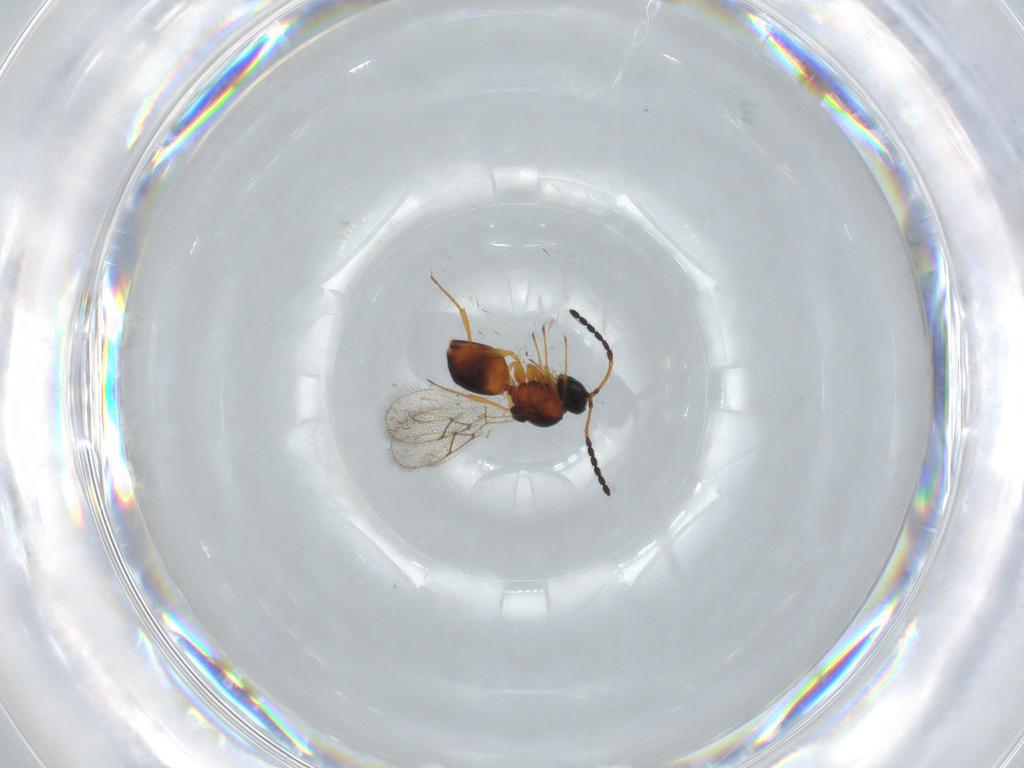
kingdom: Animalia
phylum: Arthropoda
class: Insecta
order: Hymenoptera
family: Figitidae
